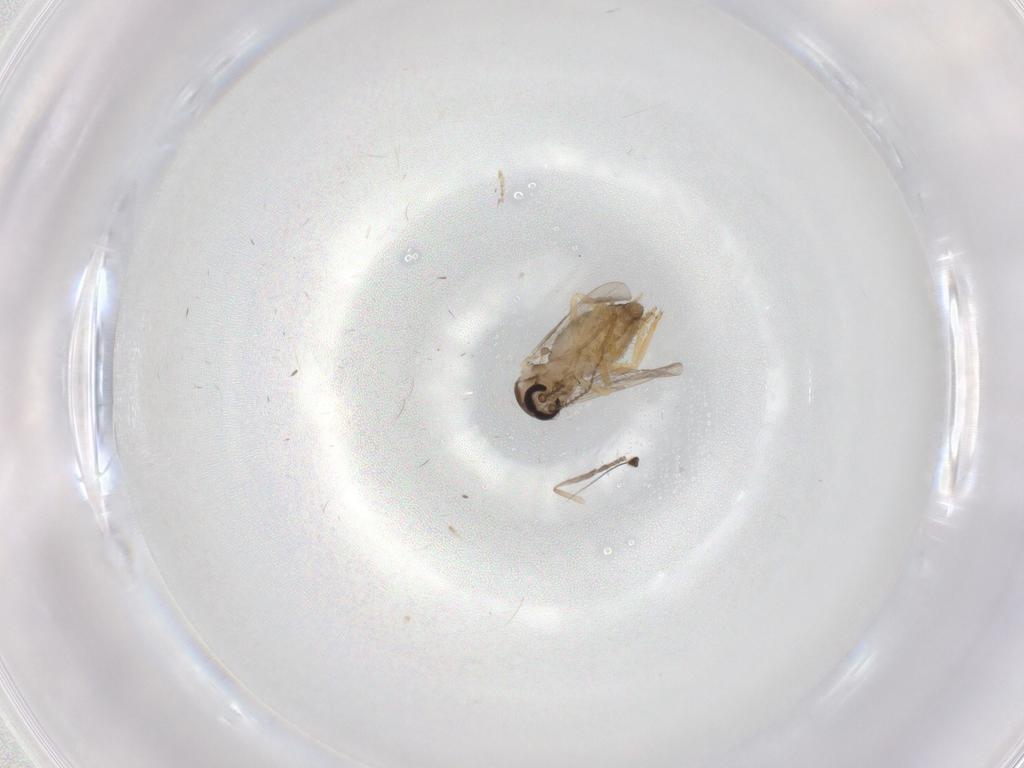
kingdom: Animalia
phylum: Arthropoda
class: Insecta
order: Diptera
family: Ceratopogonidae
